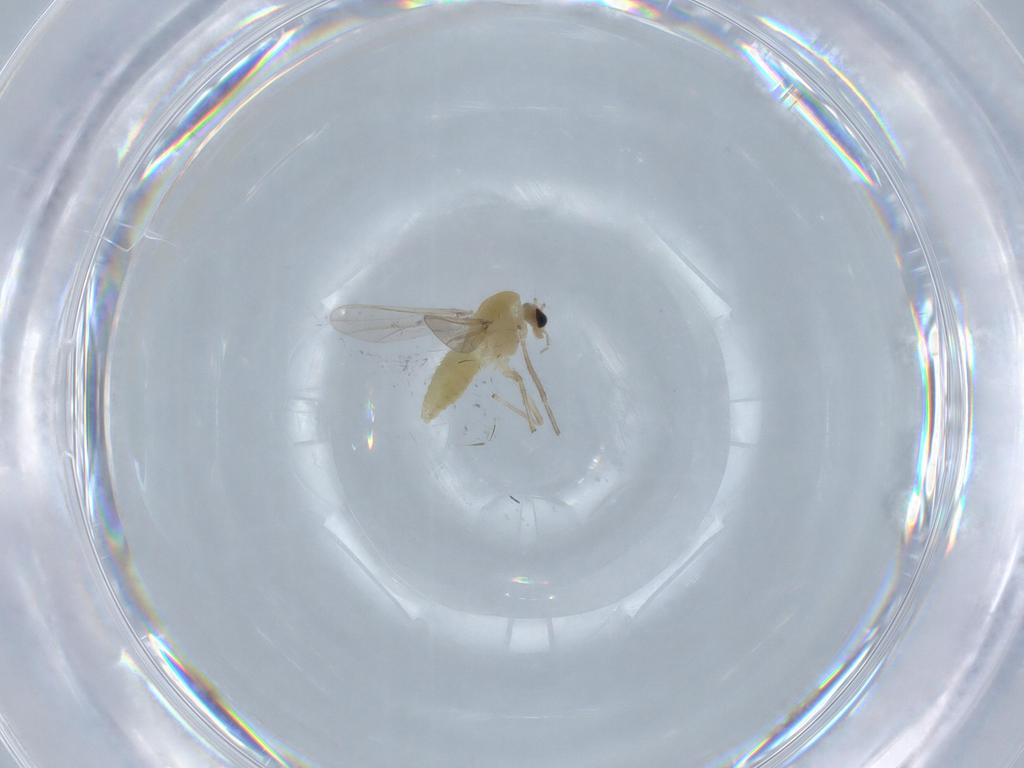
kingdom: Animalia
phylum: Arthropoda
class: Insecta
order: Diptera
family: Chironomidae
